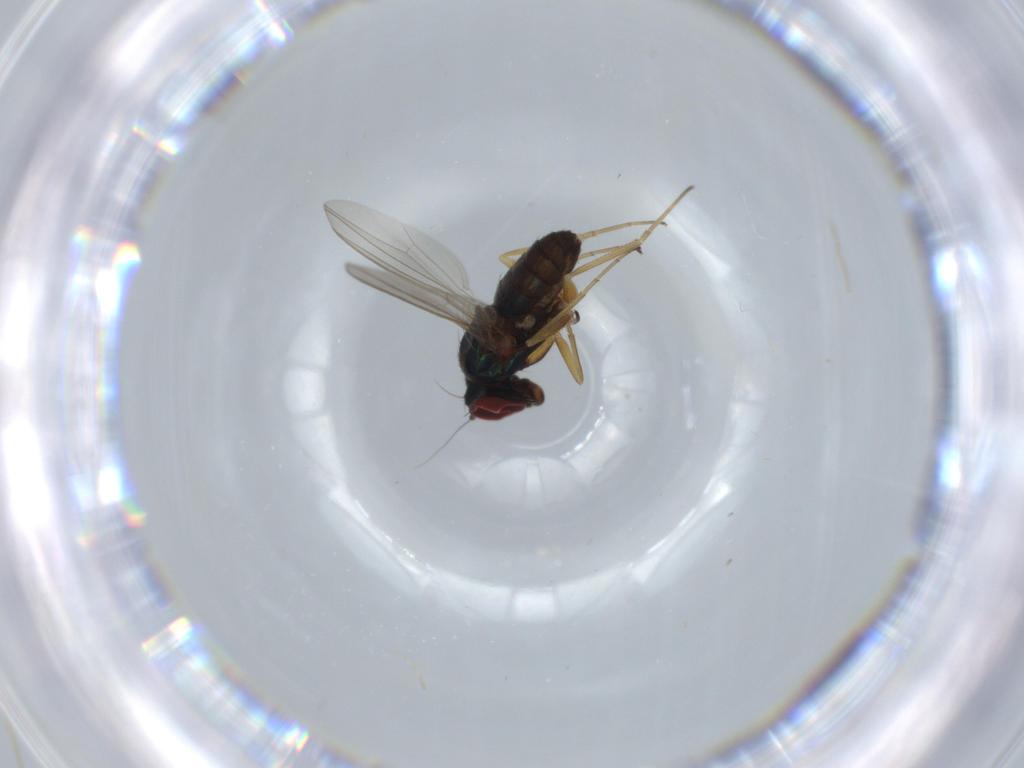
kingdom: Animalia
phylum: Arthropoda
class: Insecta
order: Diptera
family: Dolichopodidae
